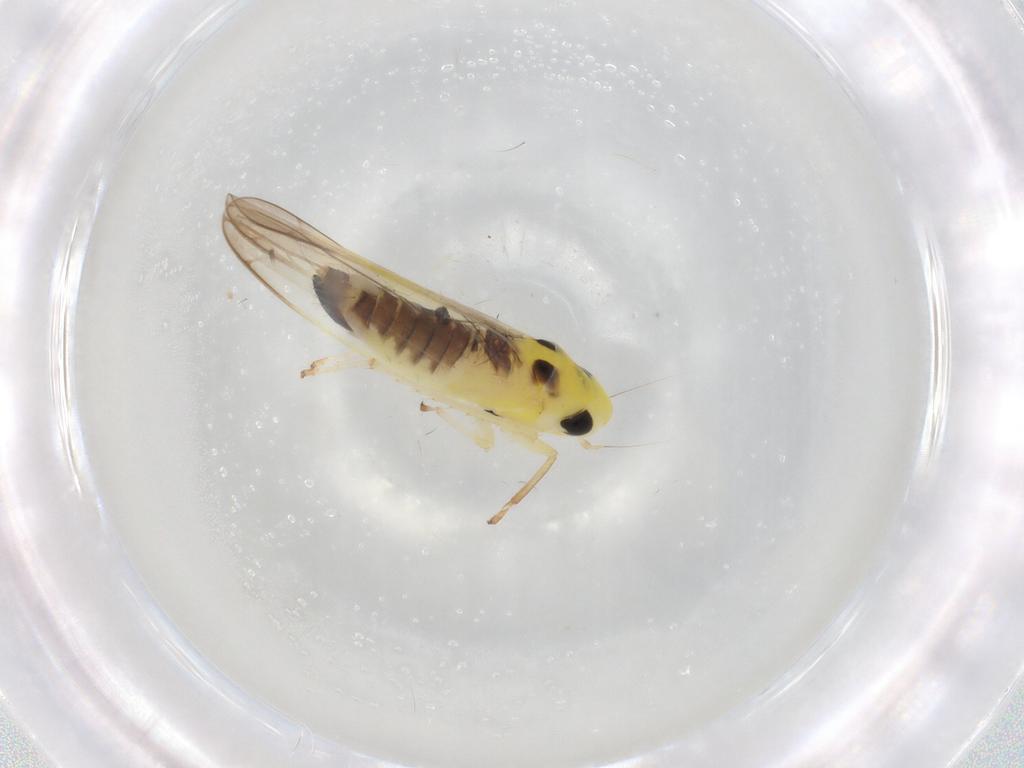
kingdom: Animalia
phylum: Arthropoda
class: Insecta
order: Hemiptera
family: Cicadellidae
